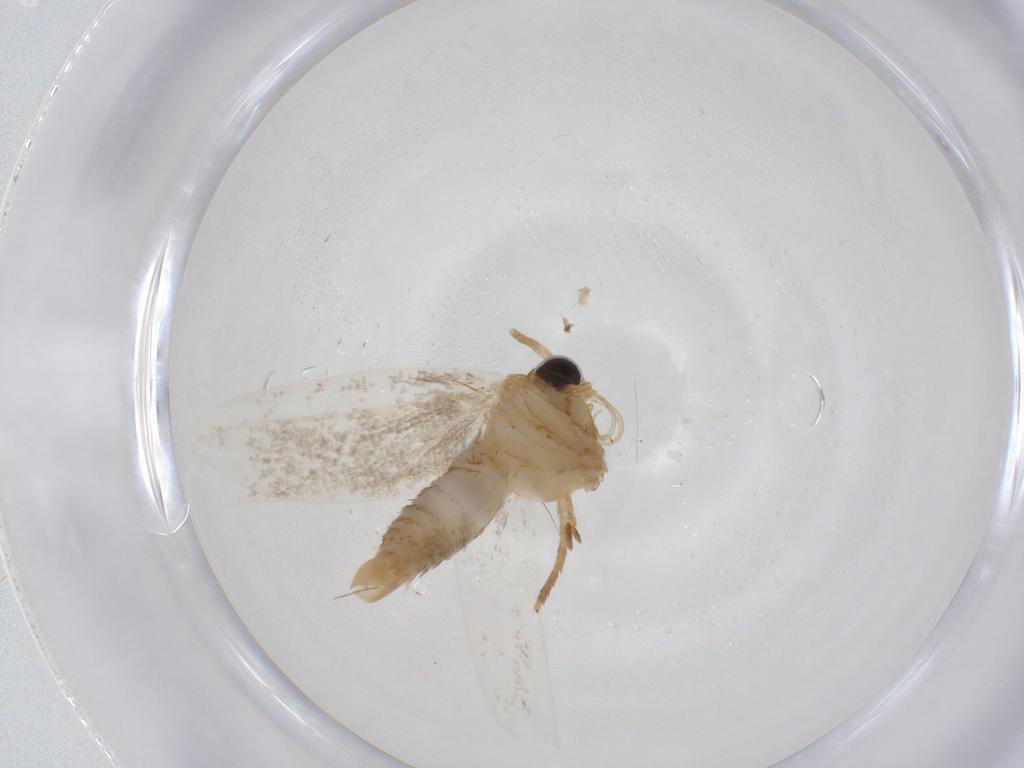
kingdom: Animalia
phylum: Arthropoda
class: Insecta
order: Lepidoptera
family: Oecophoridae
